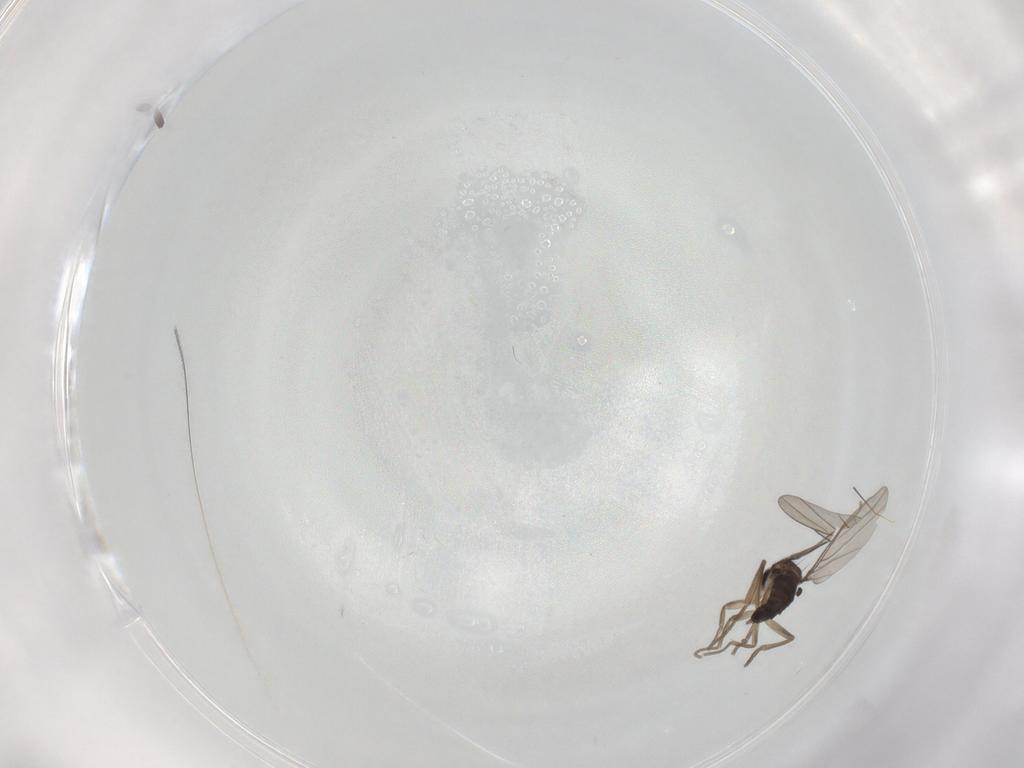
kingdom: Animalia
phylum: Arthropoda
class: Insecta
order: Diptera
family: Phoridae
